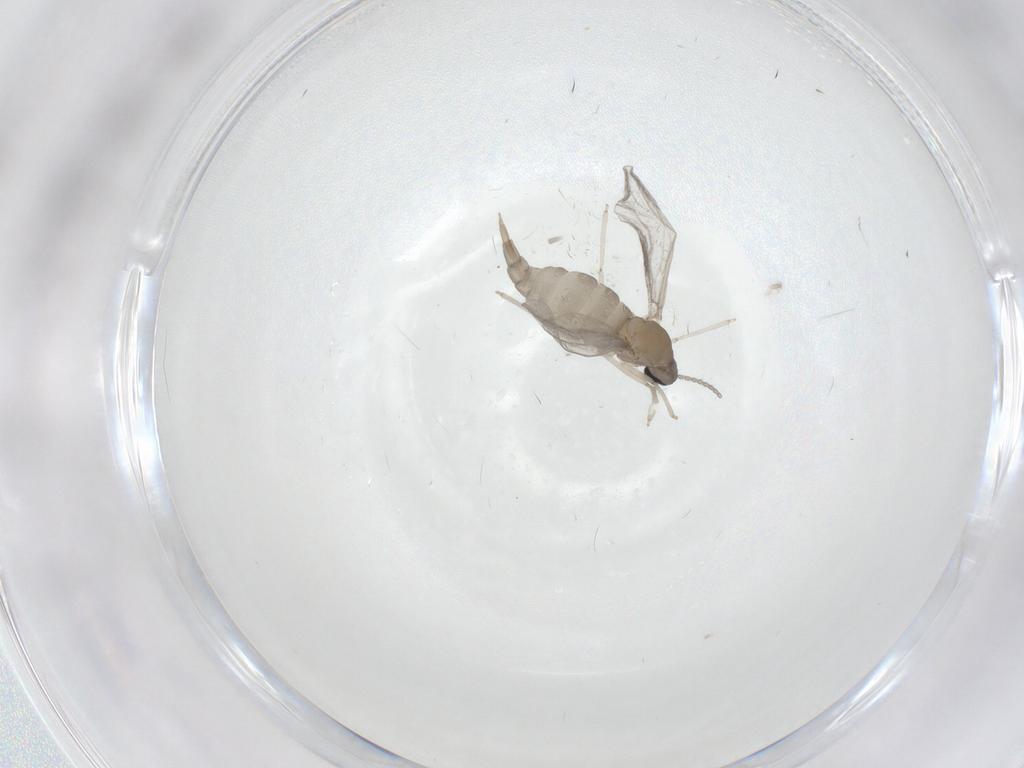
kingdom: Animalia
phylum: Arthropoda
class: Insecta
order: Diptera
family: Cecidomyiidae
